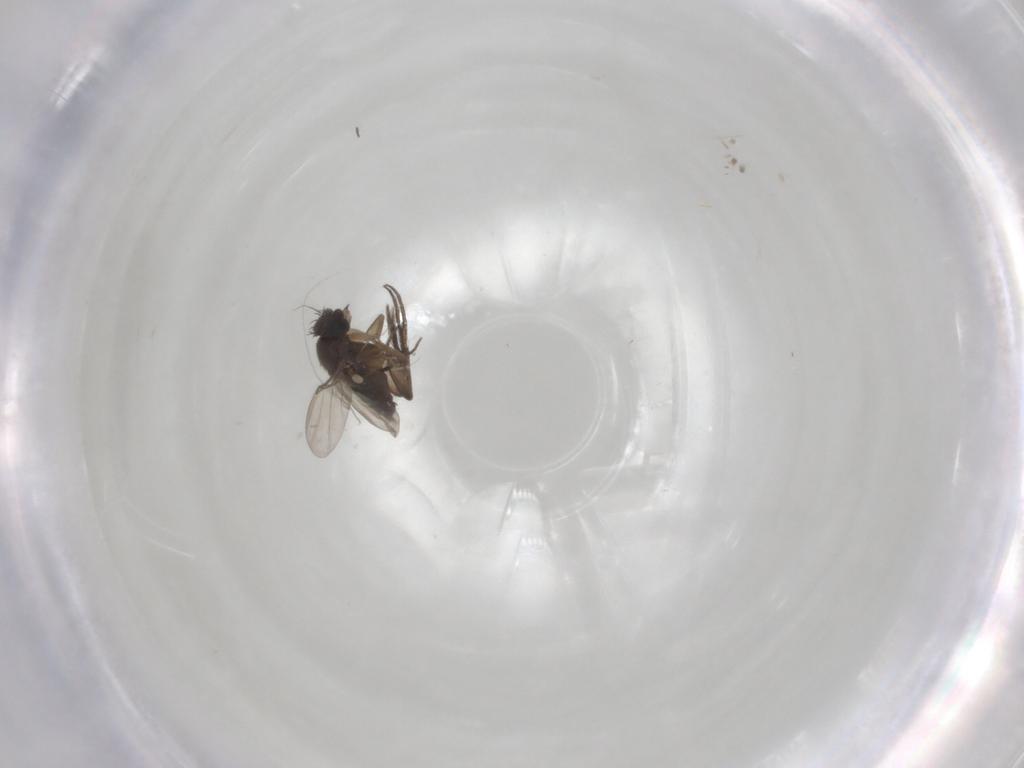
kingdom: Animalia
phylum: Arthropoda
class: Insecta
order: Diptera
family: Phoridae
